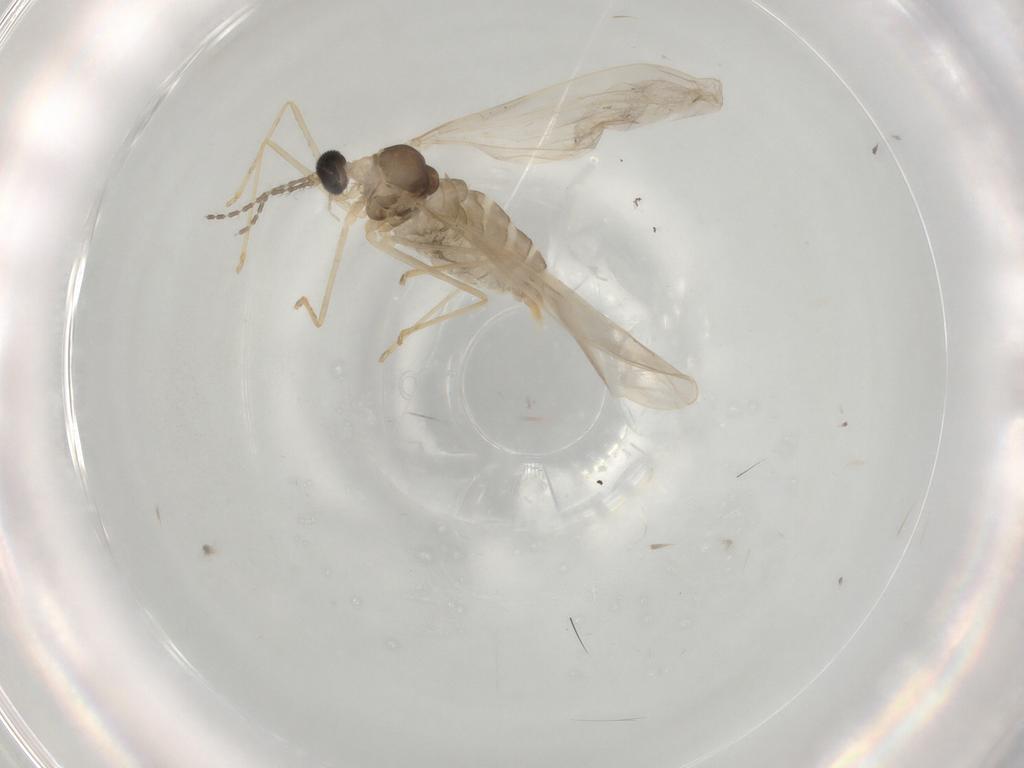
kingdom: Animalia
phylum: Arthropoda
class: Insecta
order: Diptera
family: Cecidomyiidae
